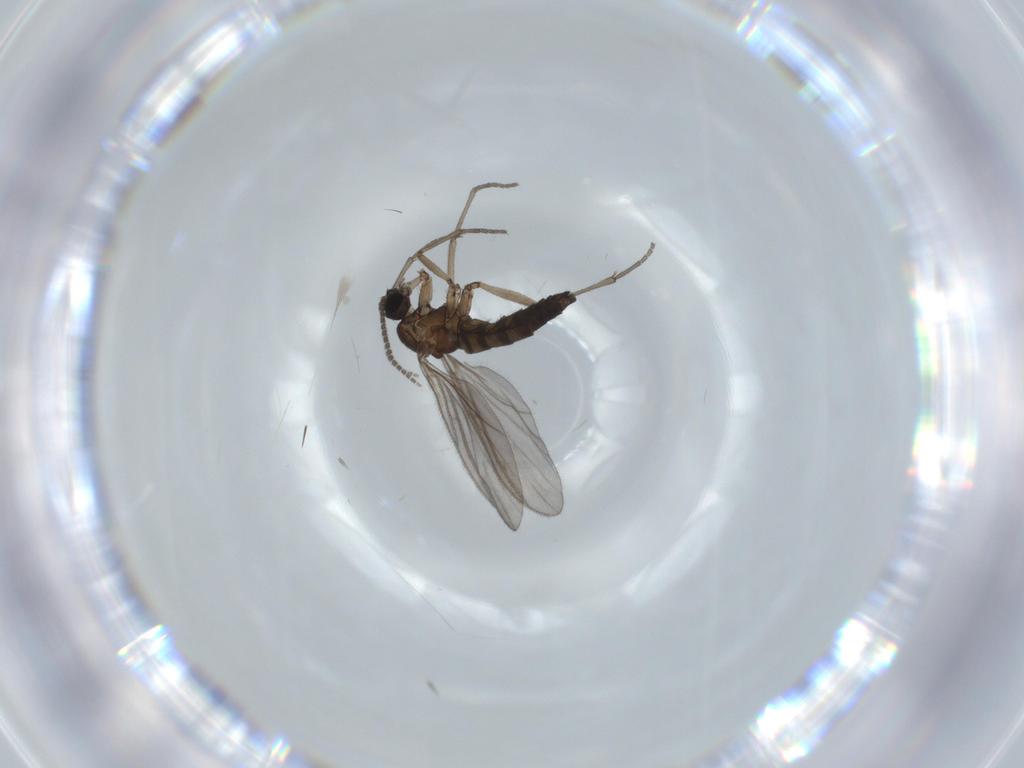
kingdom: Animalia
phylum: Arthropoda
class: Insecta
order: Diptera
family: Sciaridae
